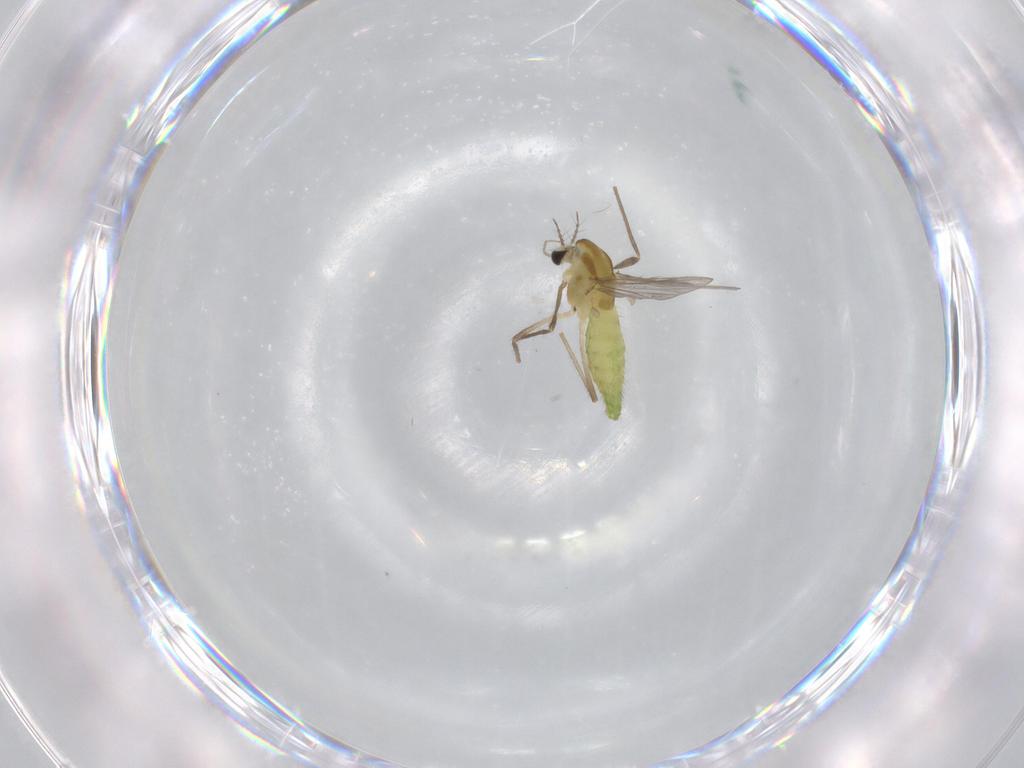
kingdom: Animalia
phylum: Arthropoda
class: Insecta
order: Diptera
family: Chironomidae
